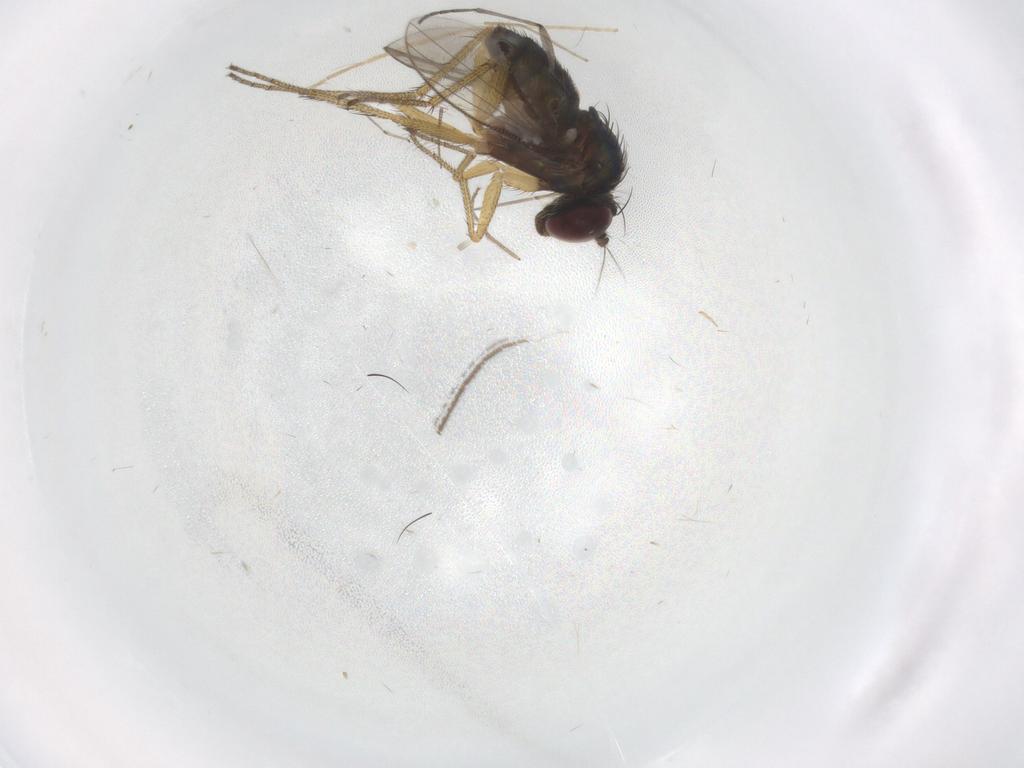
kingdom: Animalia
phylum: Arthropoda
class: Insecta
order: Diptera
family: Sciaridae
